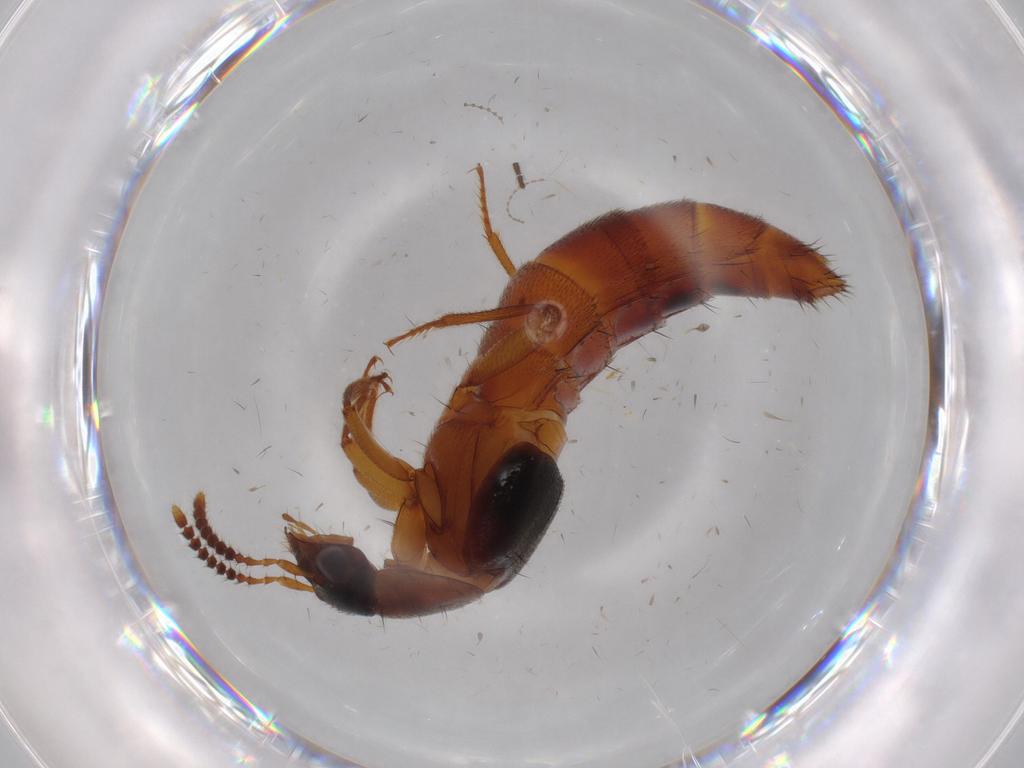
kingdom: Animalia
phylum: Arthropoda
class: Insecta
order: Coleoptera
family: Staphylinidae
